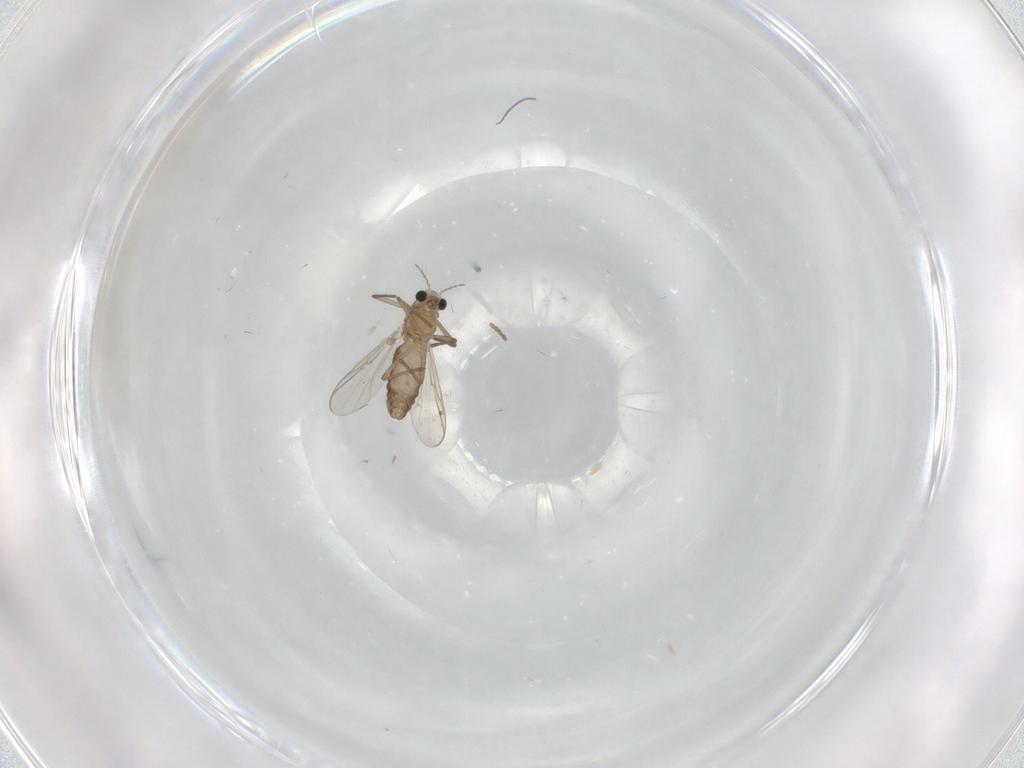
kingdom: Animalia
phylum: Arthropoda
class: Insecta
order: Diptera
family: Chironomidae
